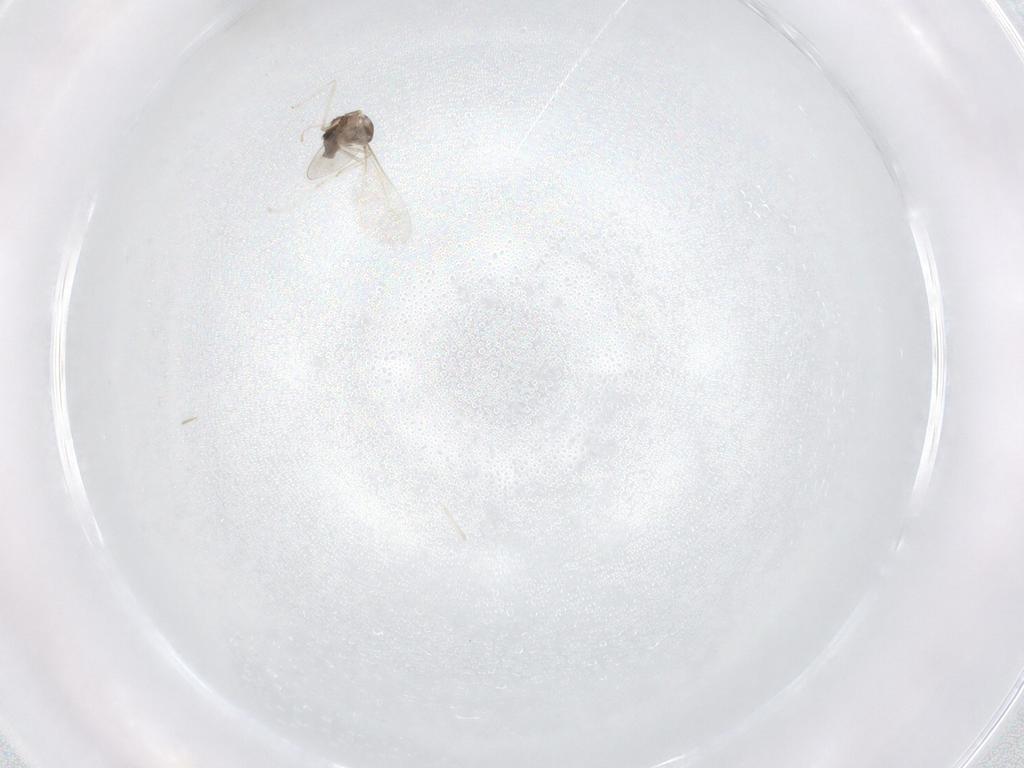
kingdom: Animalia
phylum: Arthropoda
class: Insecta
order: Diptera
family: Cecidomyiidae
